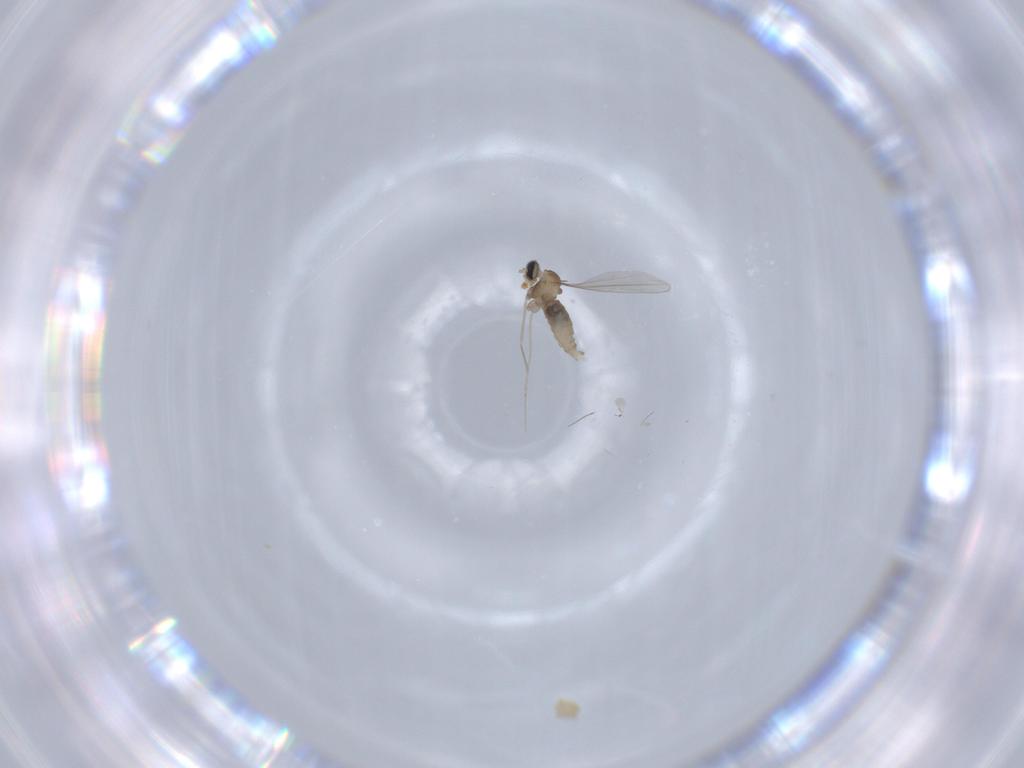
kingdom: Animalia
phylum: Arthropoda
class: Insecta
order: Diptera
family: Cecidomyiidae
